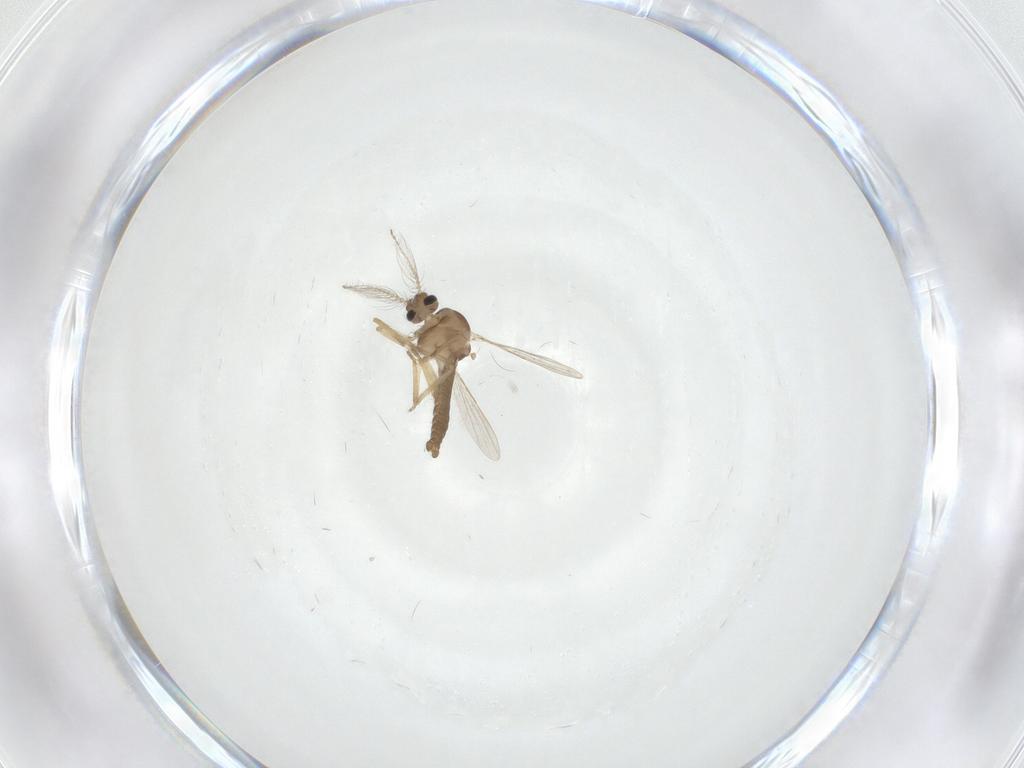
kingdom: Animalia
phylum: Arthropoda
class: Insecta
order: Diptera
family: Ceratopogonidae
